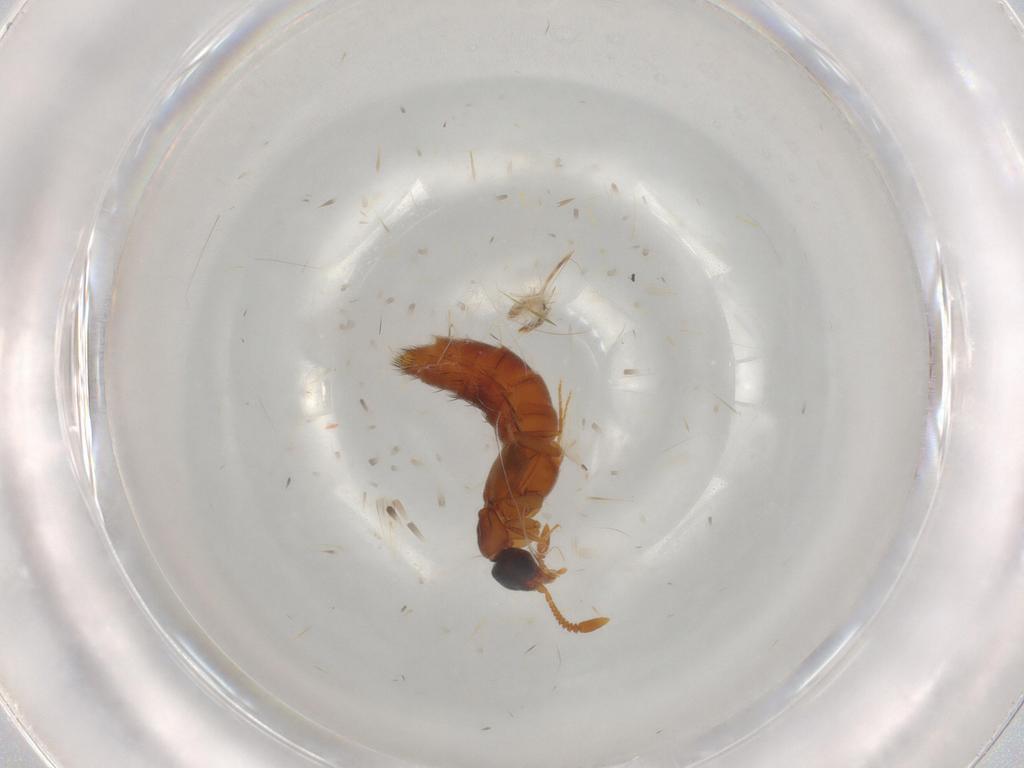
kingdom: Animalia
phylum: Arthropoda
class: Insecta
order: Coleoptera
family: Staphylinidae
